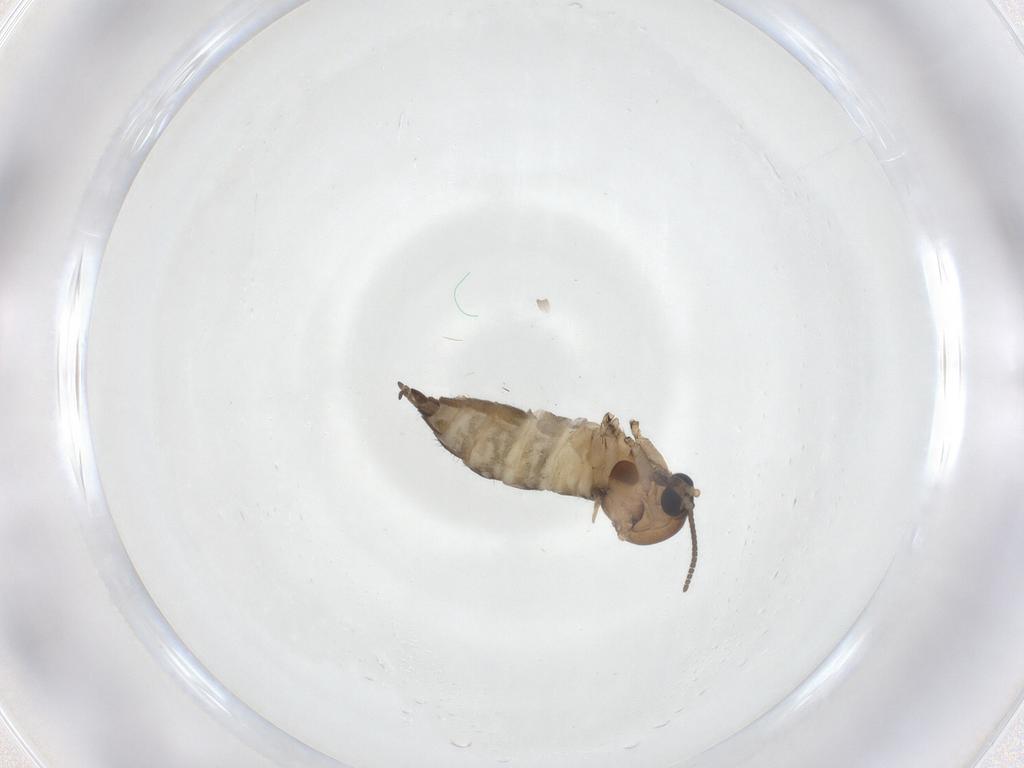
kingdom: Animalia
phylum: Arthropoda
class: Insecta
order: Diptera
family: Sciaridae
